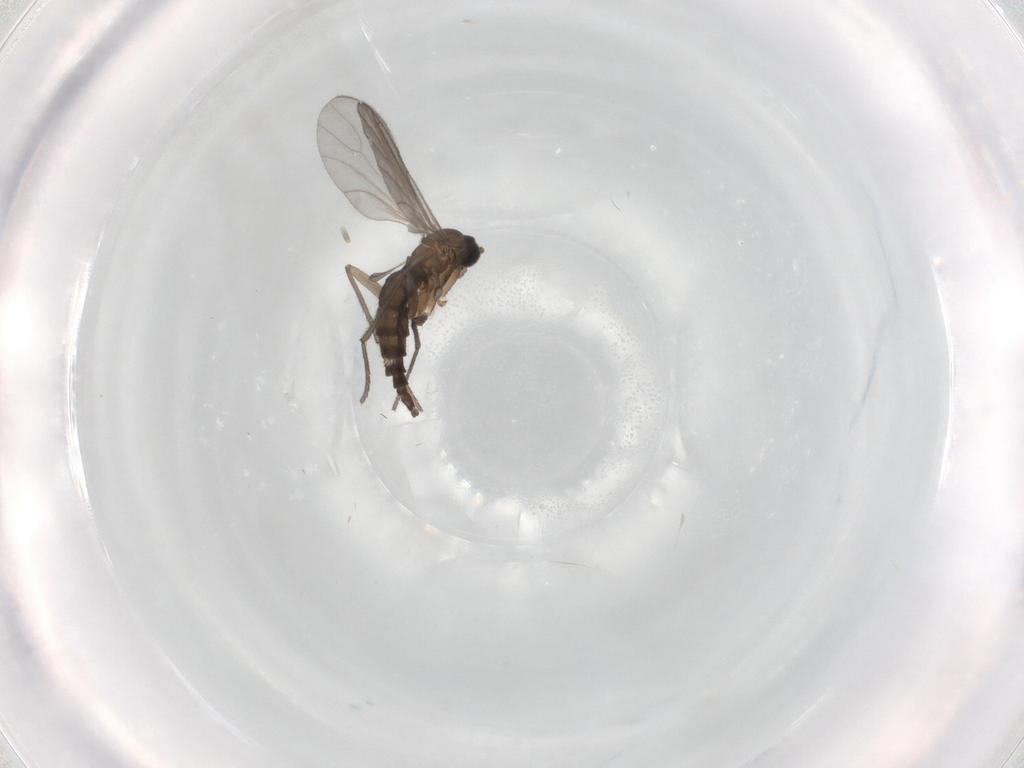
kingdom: Animalia
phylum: Arthropoda
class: Insecta
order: Diptera
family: Sciaridae
